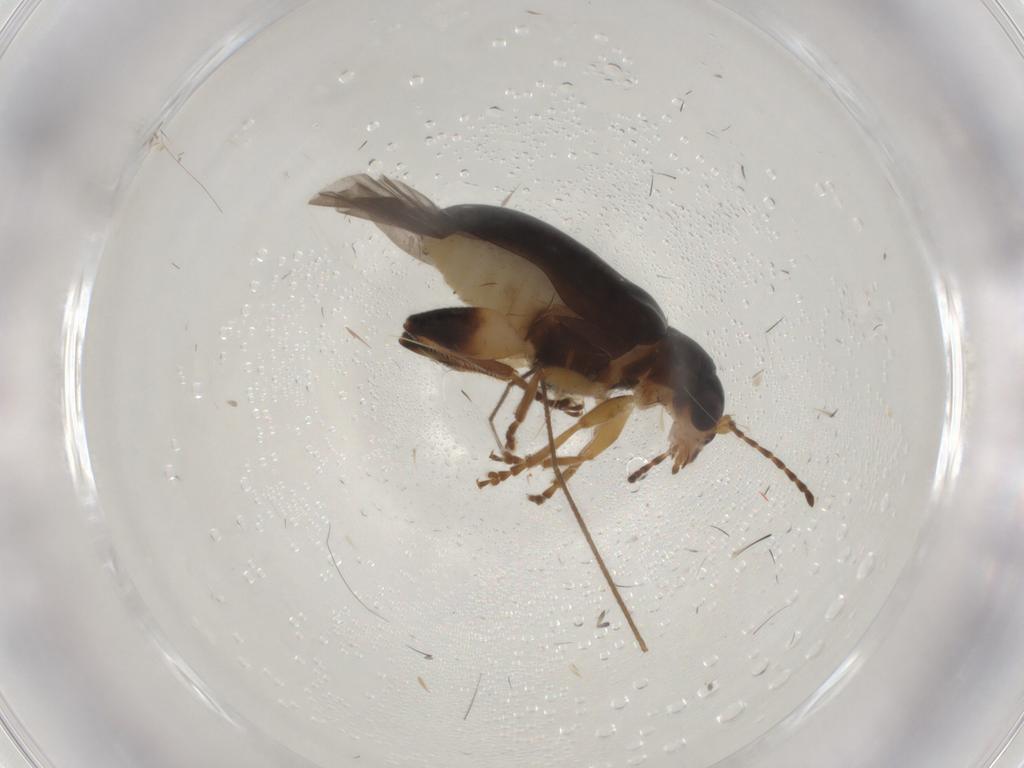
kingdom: Animalia
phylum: Arthropoda
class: Insecta
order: Coleoptera
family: Chrysomelidae
